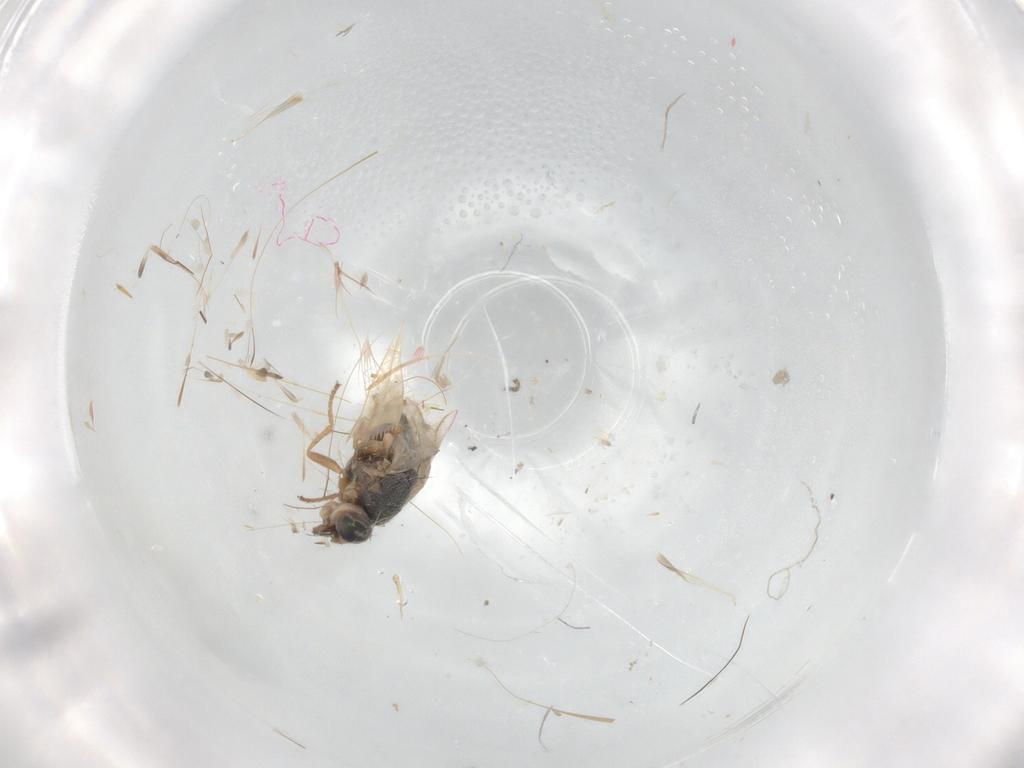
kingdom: Animalia
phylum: Arthropoda
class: Insecta
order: Diptera
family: Chloropidae
